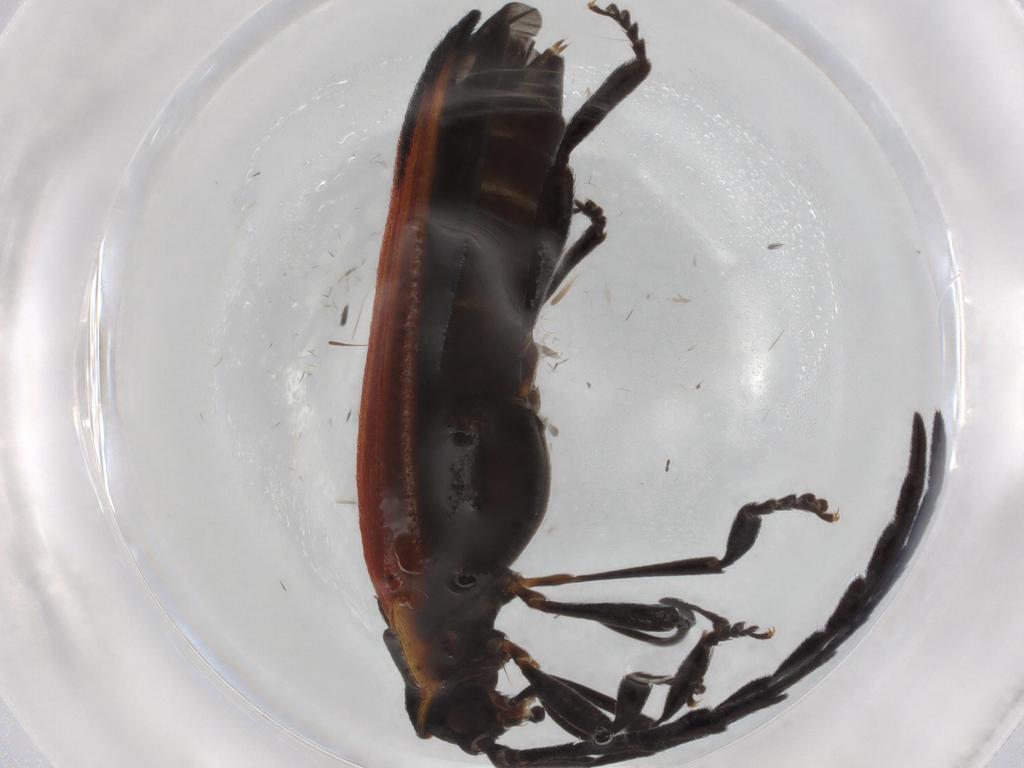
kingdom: Animalia
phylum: Arthropoda
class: Insecta
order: Coleoptera
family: Lycidae
